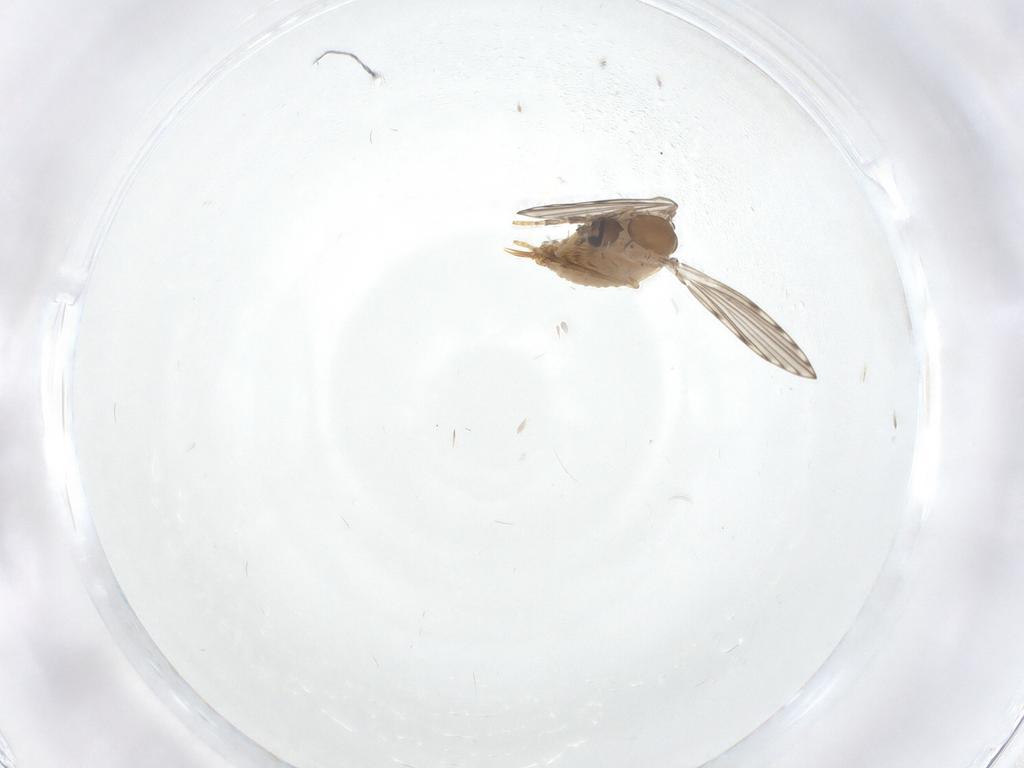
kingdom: Animalia
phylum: Arthropoda
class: Insecta
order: Diptera
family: Psychodidae
